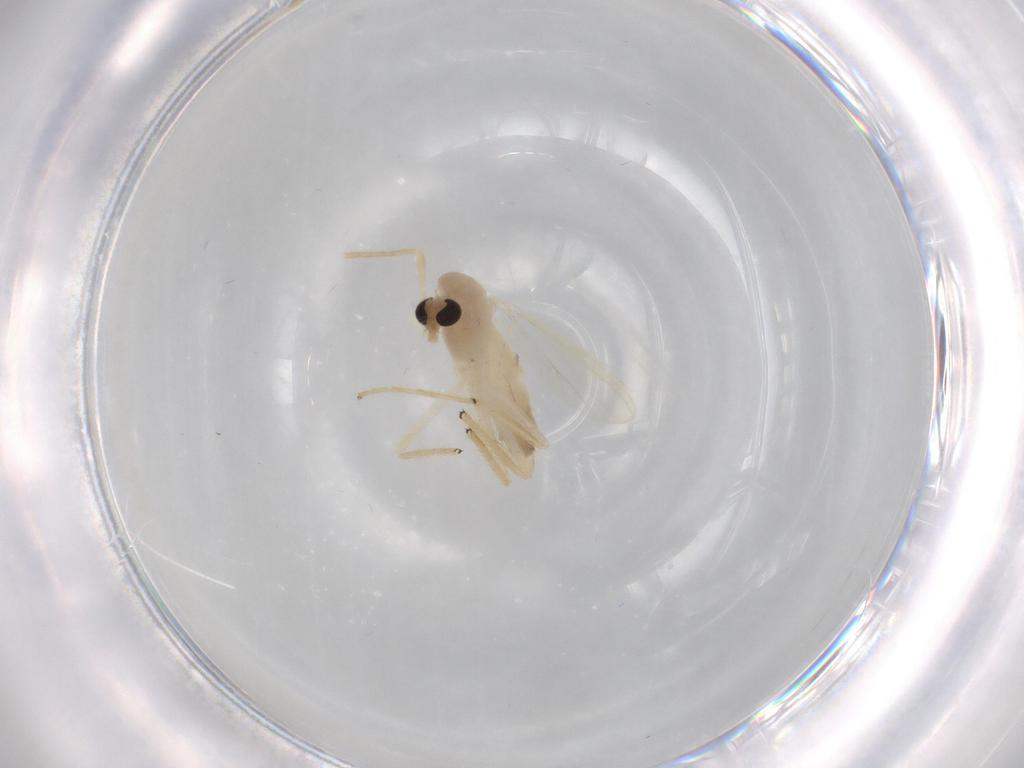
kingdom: Animalia
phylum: Arthropoda
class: Insecta
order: Diptera
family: Chironomidae
